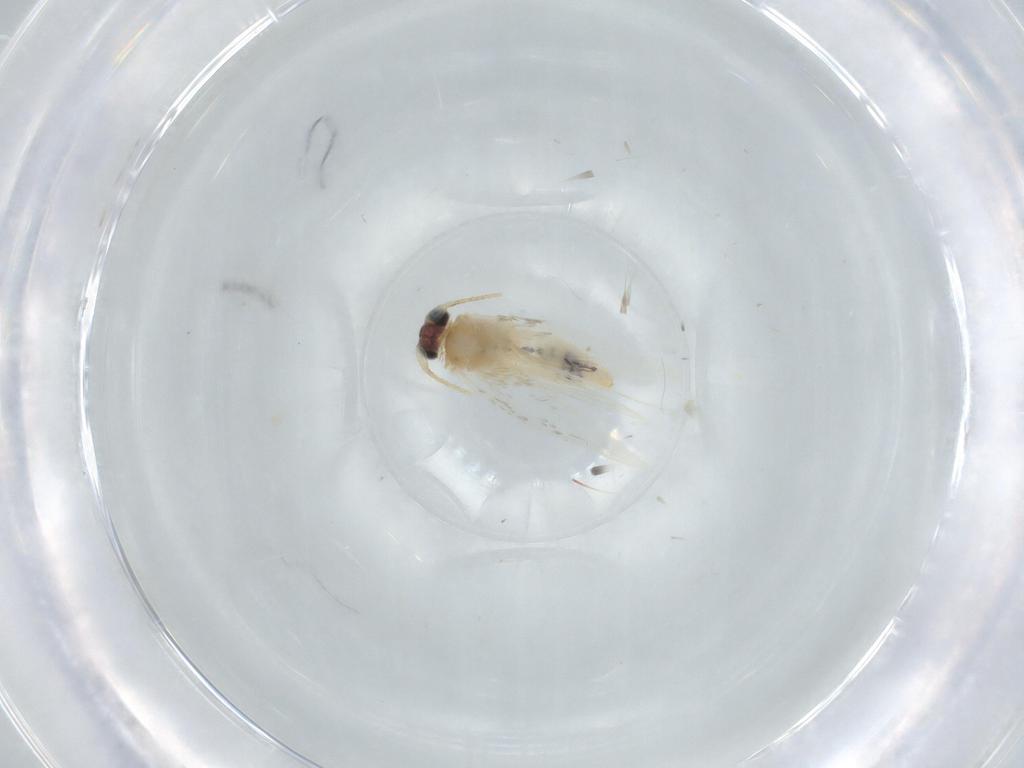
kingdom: Animalia
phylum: Arthropoda
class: Insecta
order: Lepidoptera
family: Nepticulidae
